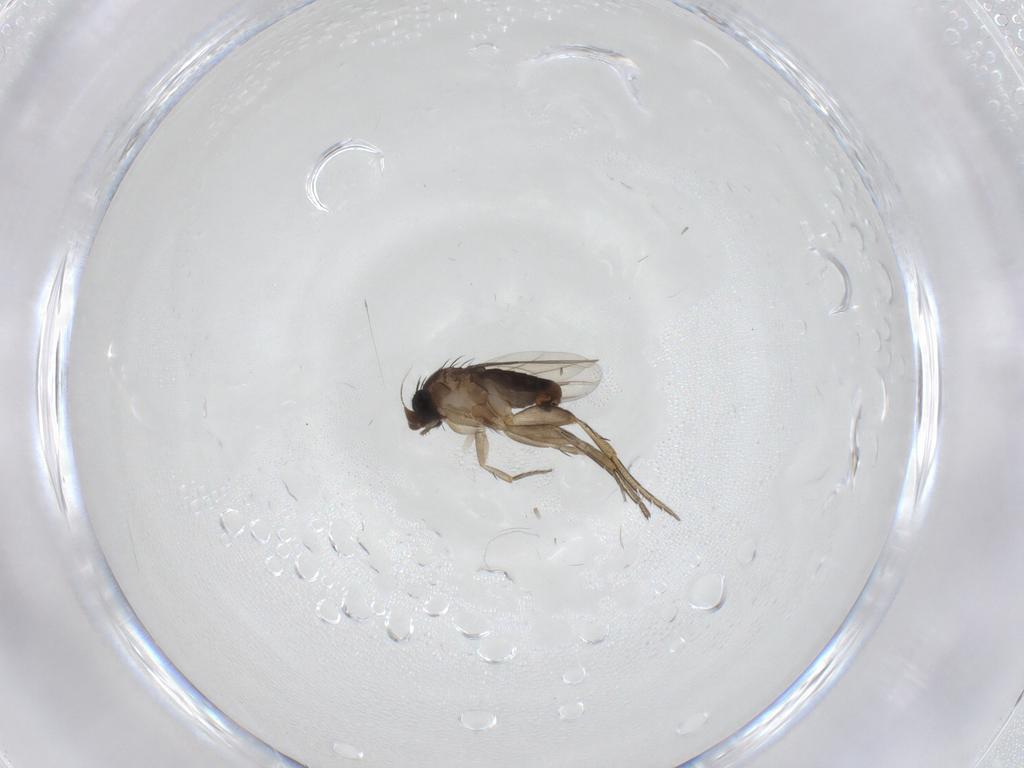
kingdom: Animalia
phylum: Arthropoda
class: Insecta
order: Diptera
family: Phoridae
